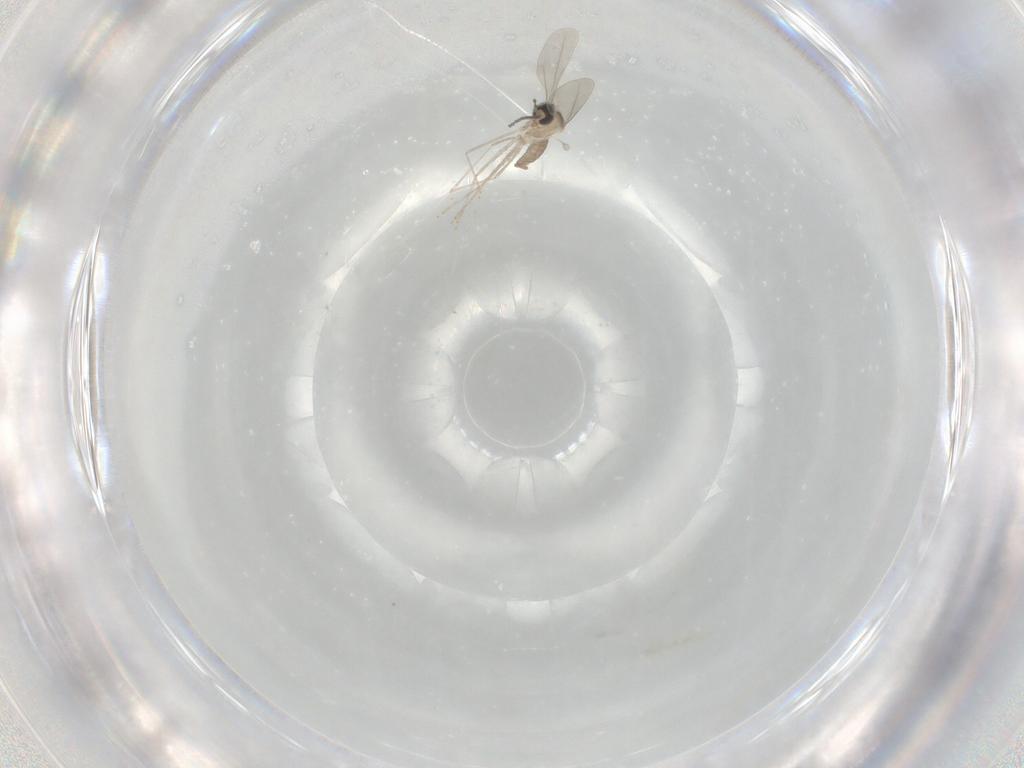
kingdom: Animalia
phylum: Arthropoda
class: Insecta
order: Diptera
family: Cecidomyiidae
